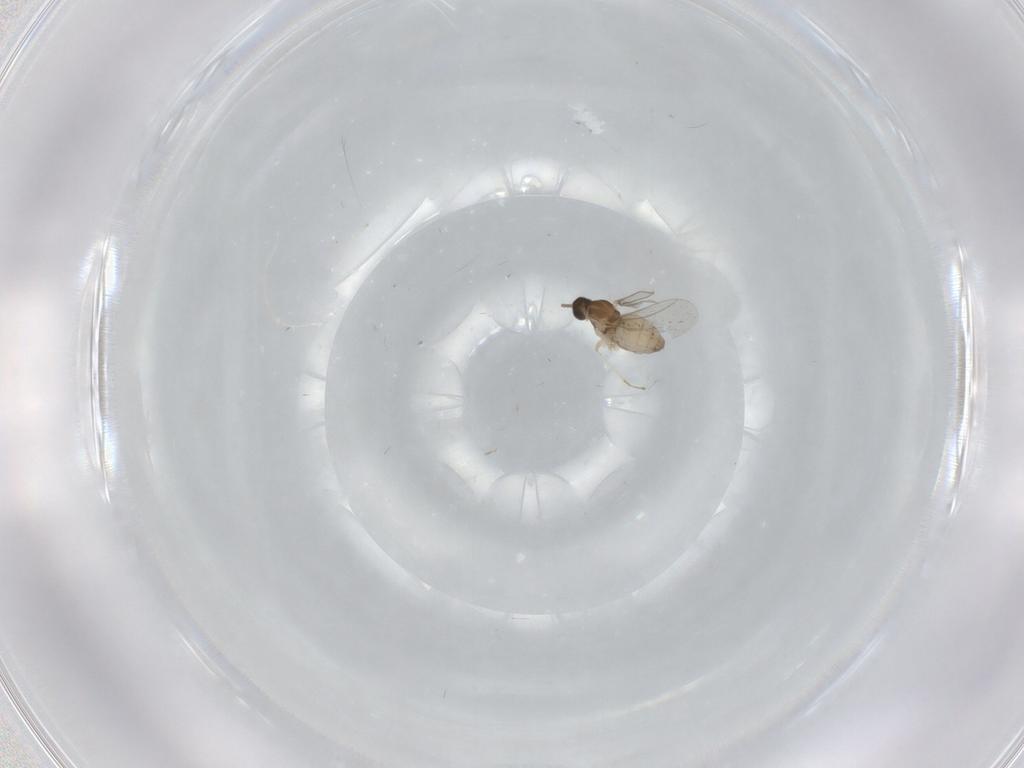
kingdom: Animalia
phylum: Arthropoda
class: Insecta
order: Diptera
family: Cecidomyiidae
